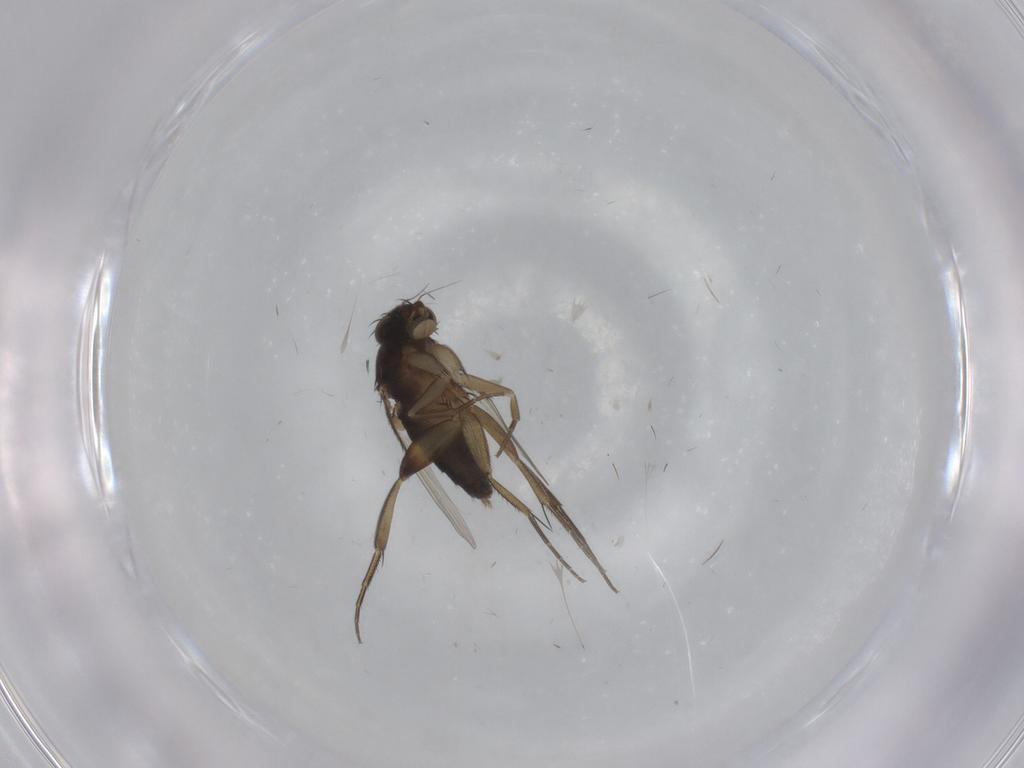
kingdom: Animalia
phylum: Arthropoda
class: Insecta
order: Diptera
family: Phoridae
